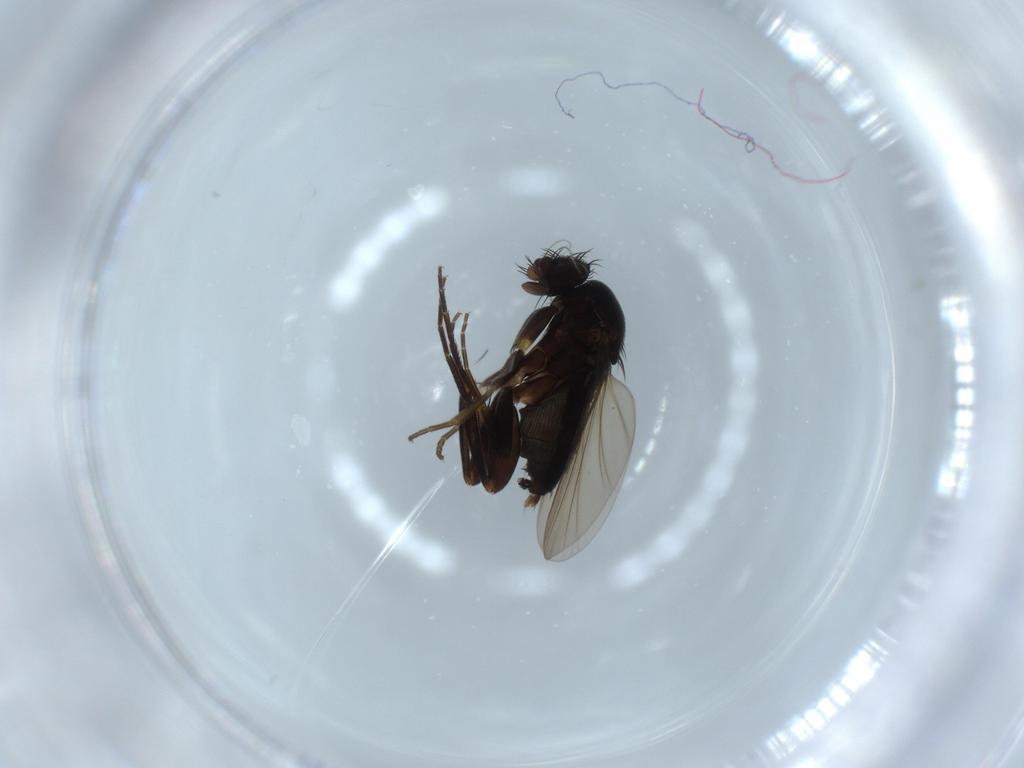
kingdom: Animalia
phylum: Arthropoda
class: Insecta
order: Diptera
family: Phoridae
